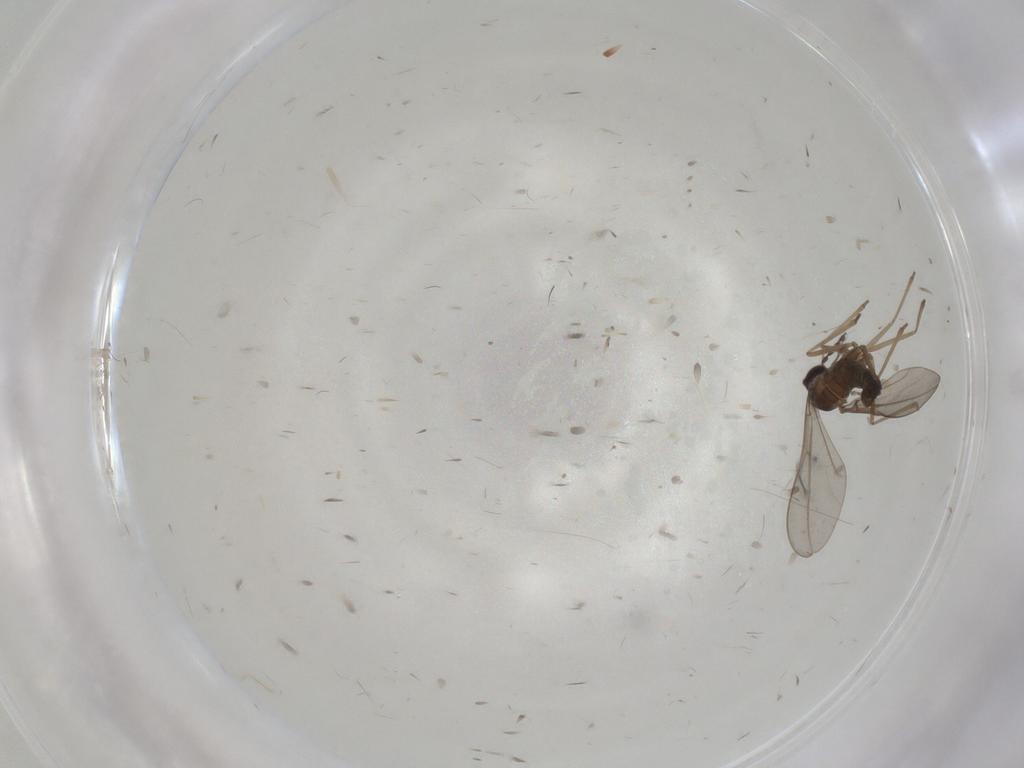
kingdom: Animalia
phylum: Arthropoda
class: Insecta
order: Diptera
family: Cecidomyiidae
